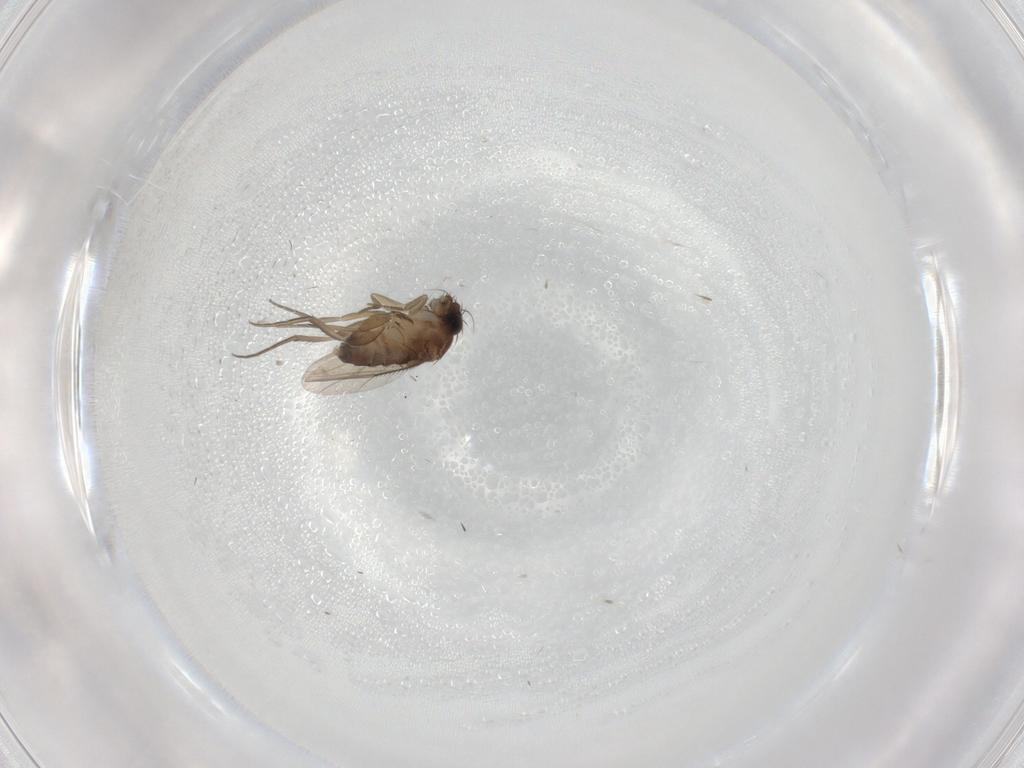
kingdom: Animalia
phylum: Arthropoda
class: Insecta
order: Diptera
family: Phoridae
